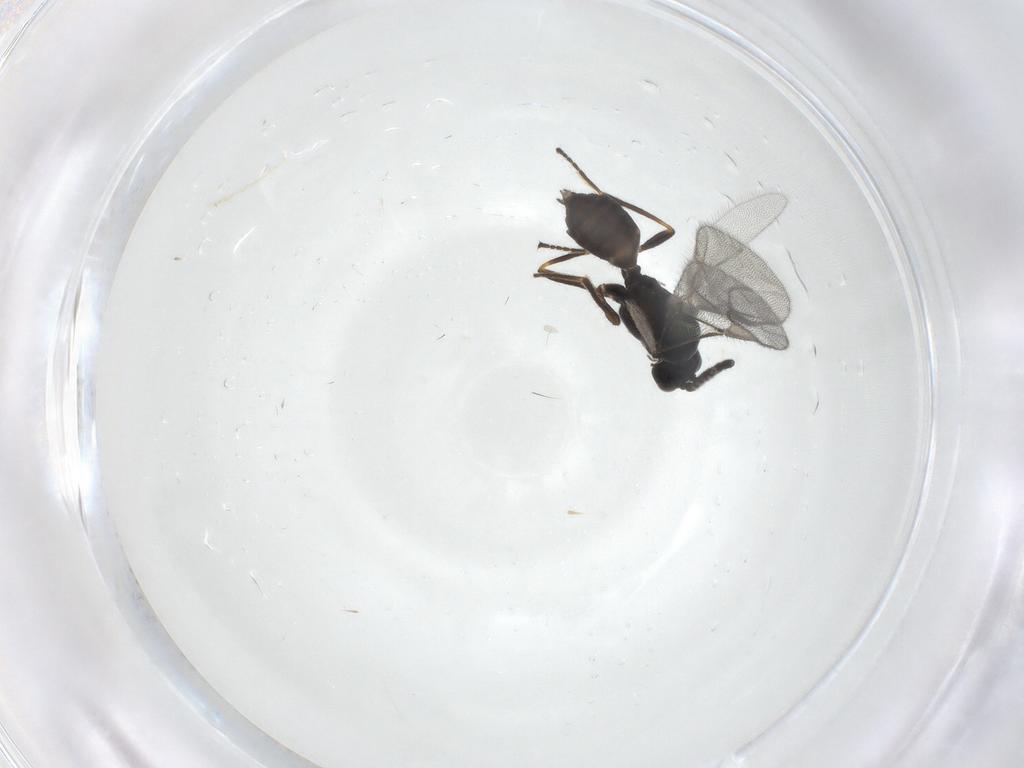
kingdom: Animalia
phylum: Arthropoda
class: Insecta
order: Hymenoptera
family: Braconidae
